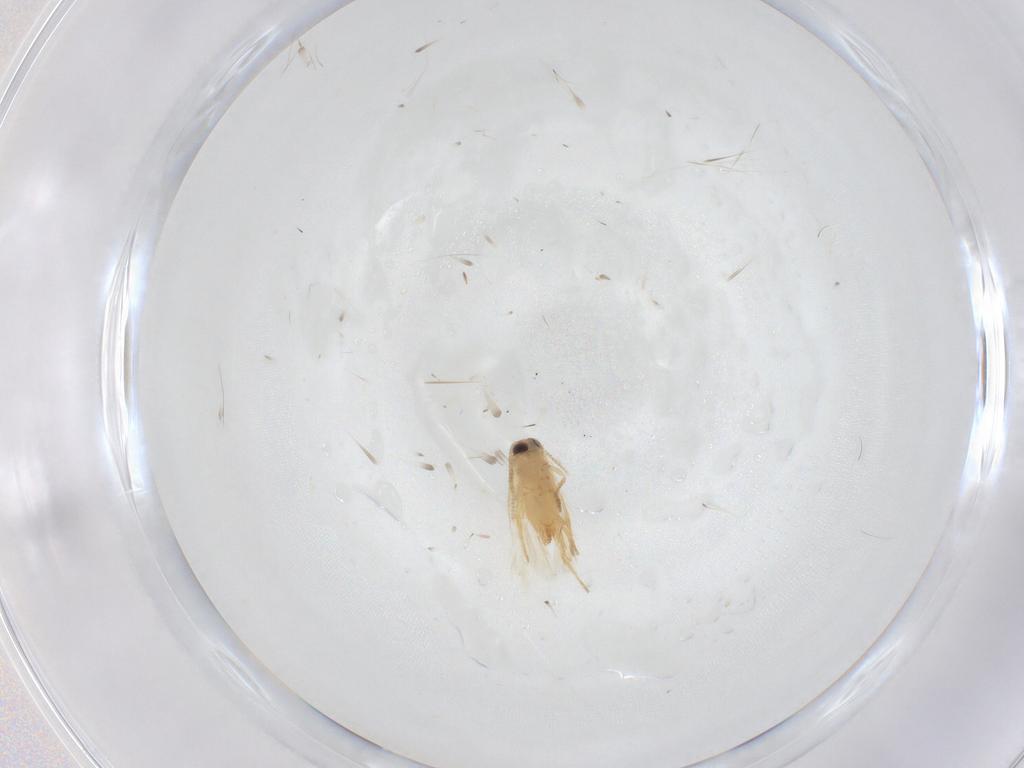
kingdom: Animalia
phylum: Arthropoda
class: Insecta
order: Lepidoptera
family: Crambidae
